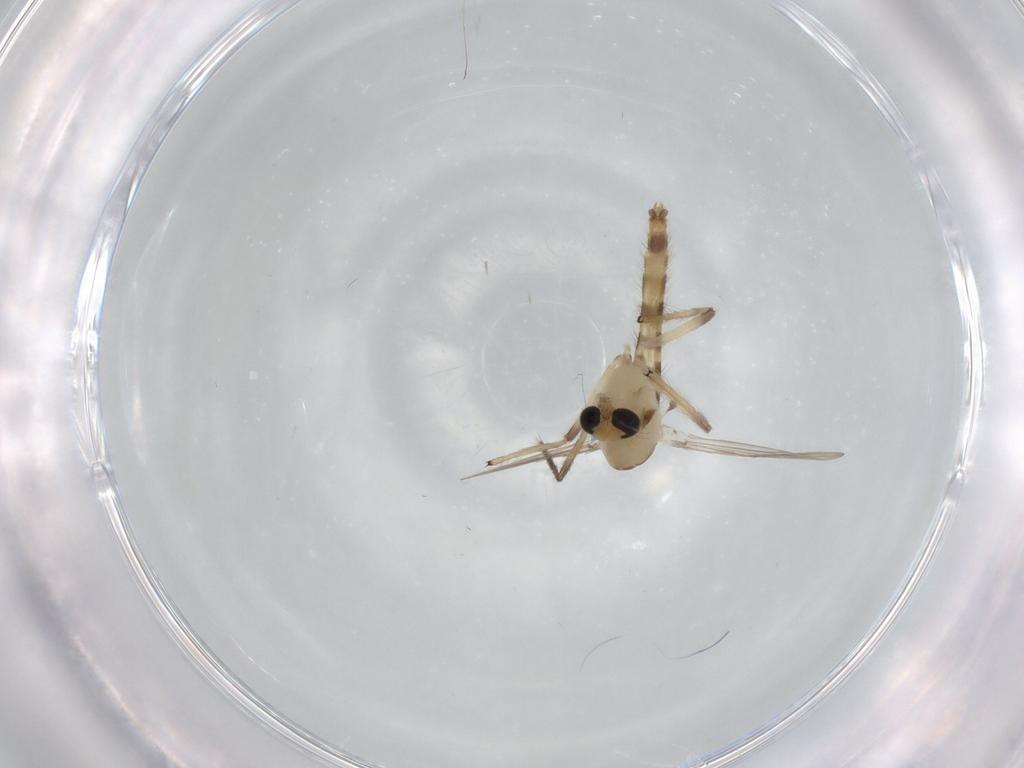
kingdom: Animalia
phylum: Arthropoda
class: Insecta
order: Diptera
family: Chironomidae
